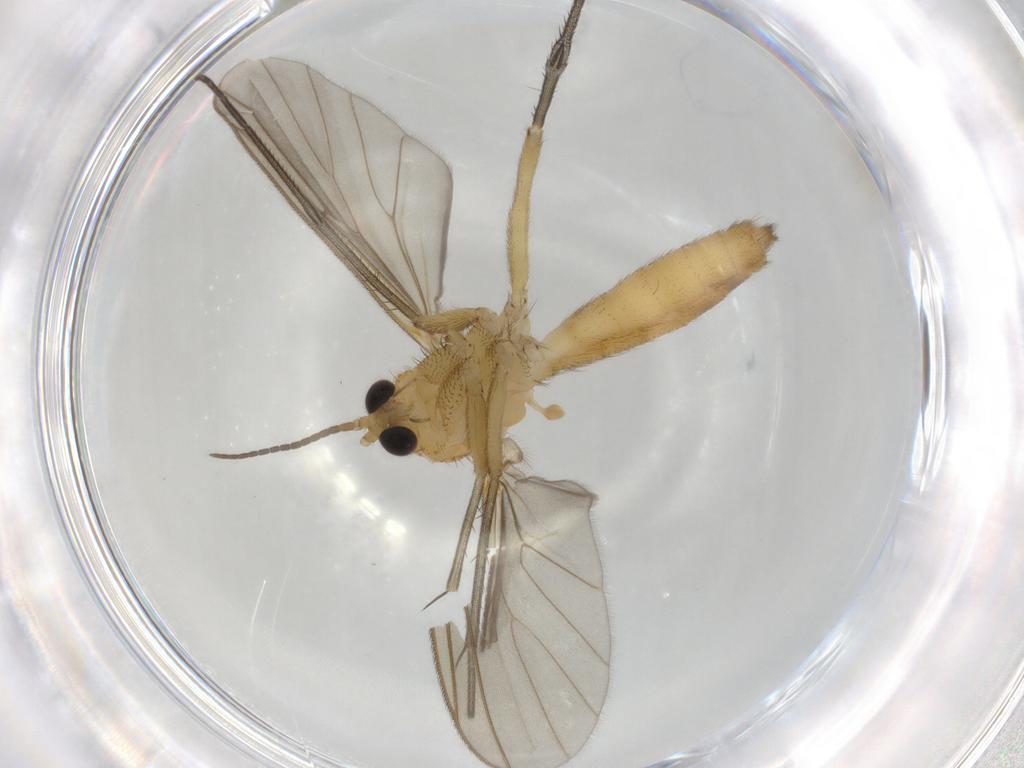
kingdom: Animalia
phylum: Arthropoda
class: Insecta
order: Diptera
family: Mycetophilidae
